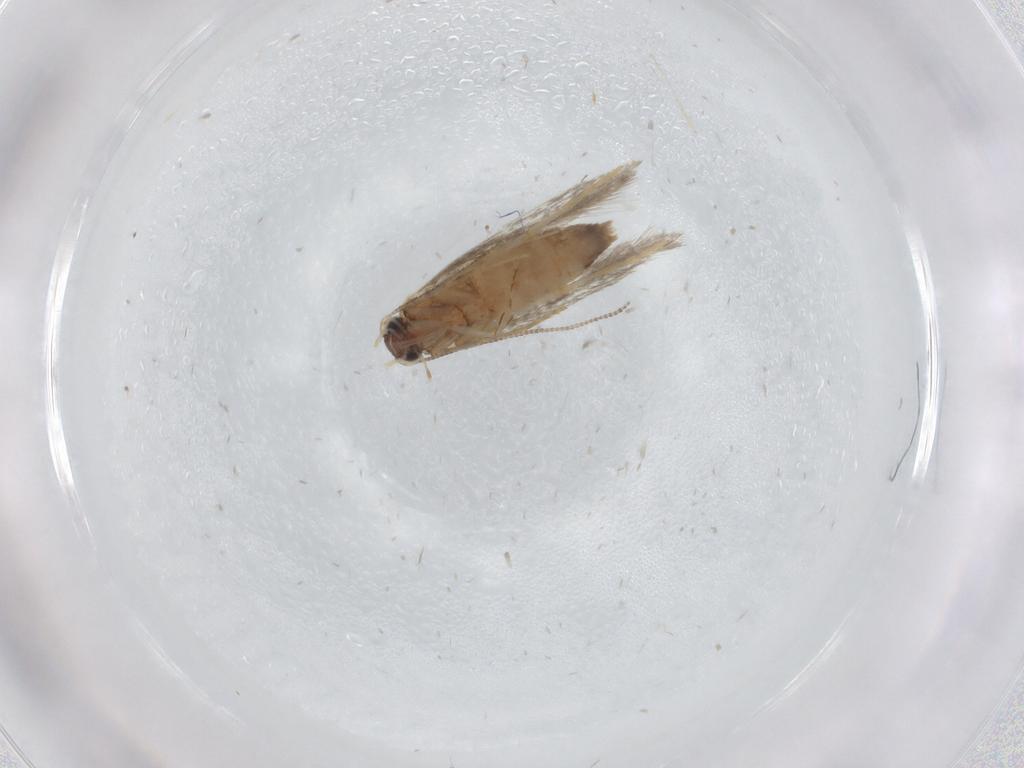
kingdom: Animalia
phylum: Arthropoda
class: Insecta
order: Lepidoptera
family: Tineidae
